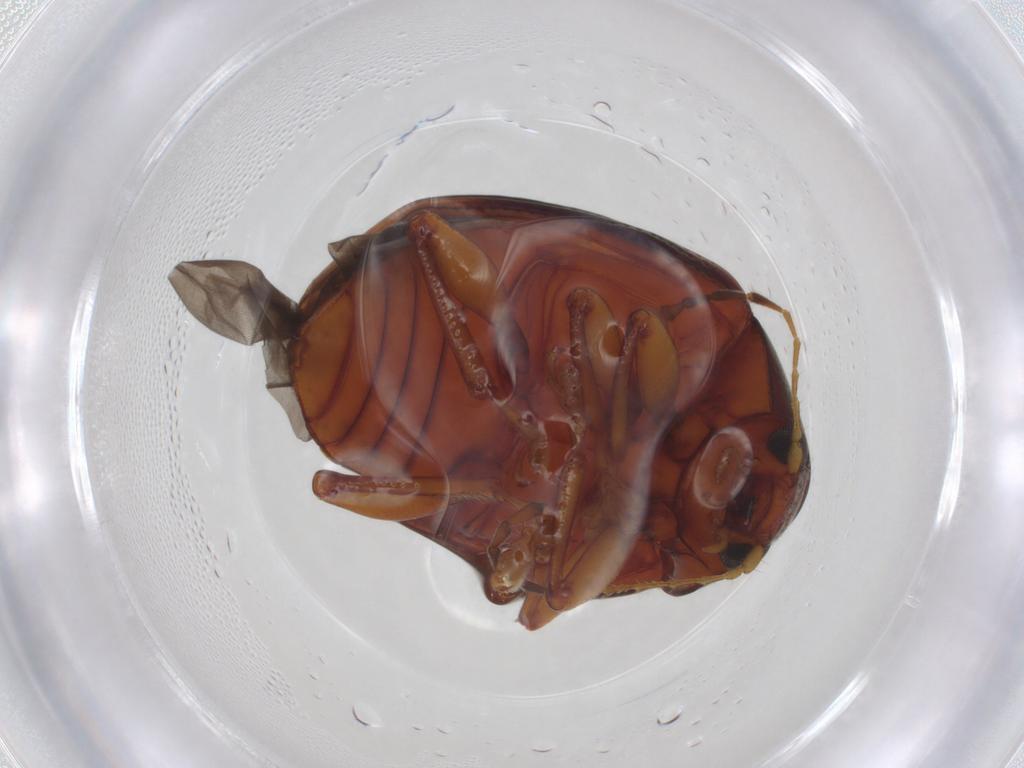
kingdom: Animalia
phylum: Arthropoda
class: Insecta
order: Coleoptera
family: Chrysomelidae
